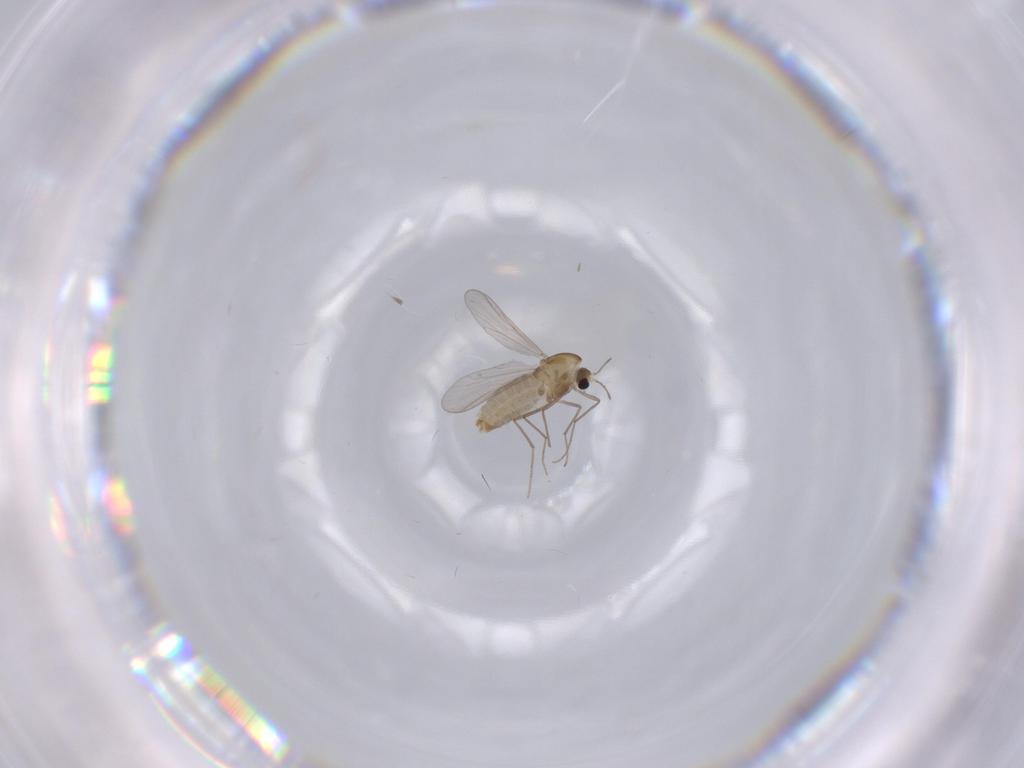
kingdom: Animalia
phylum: Arthropoda
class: Insecta
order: Diptera
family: Chironomidae
